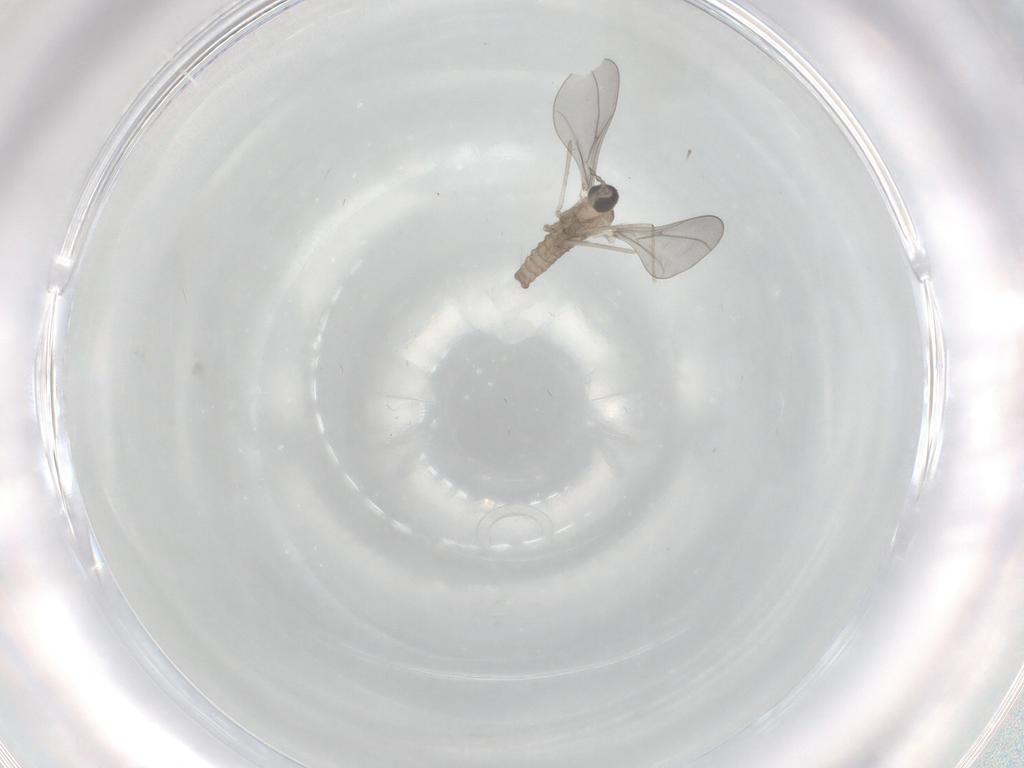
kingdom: Animalia
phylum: Arthropoda
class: Insecta
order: Diptera
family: Cecidomyiidae
